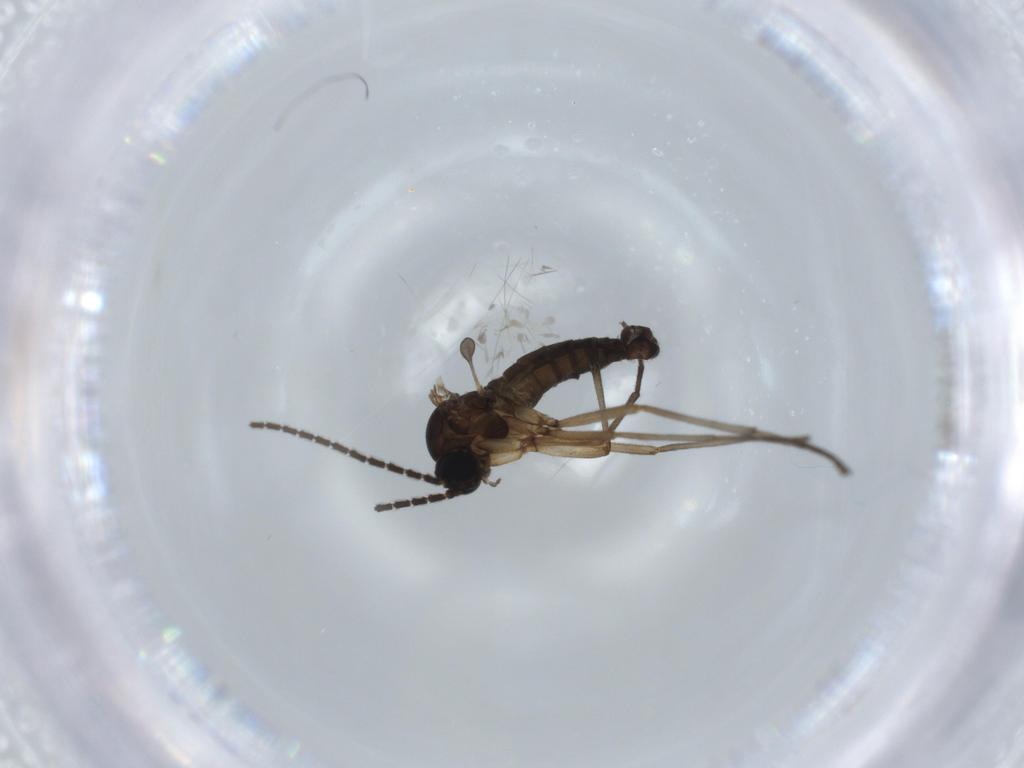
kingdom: Animalia
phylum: Arthropoda
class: Insecta
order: Diptera
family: Sciaridae
